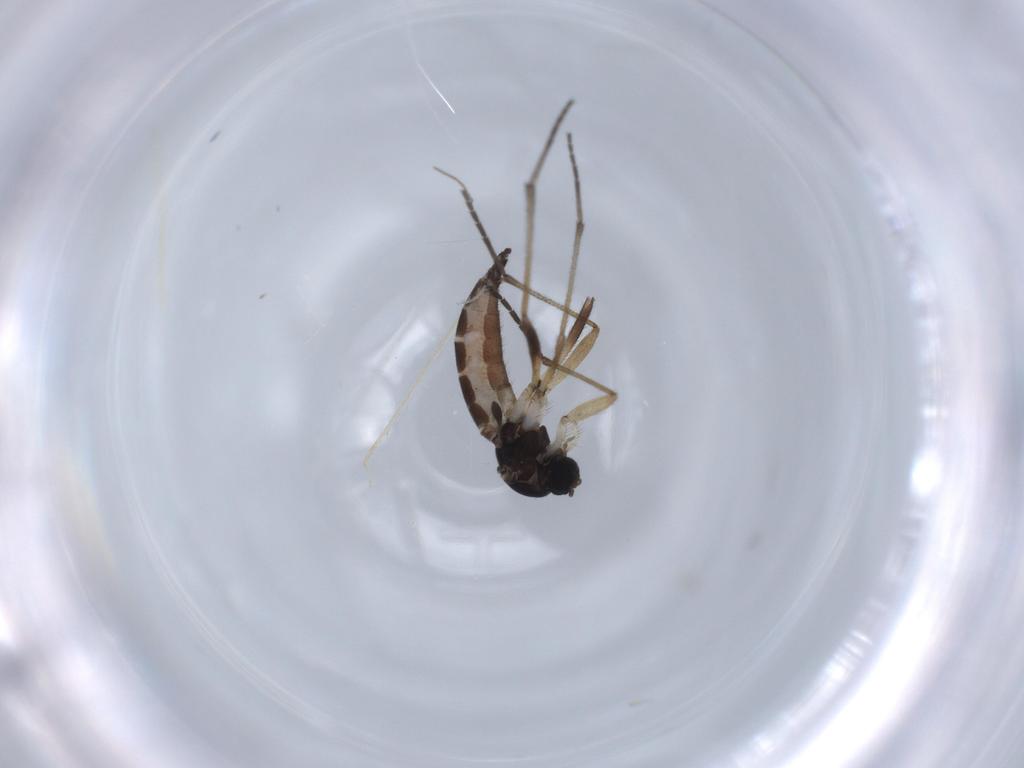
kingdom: Animalia
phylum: Arthropoda
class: Insecta
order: Diptera
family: Sciaridae
